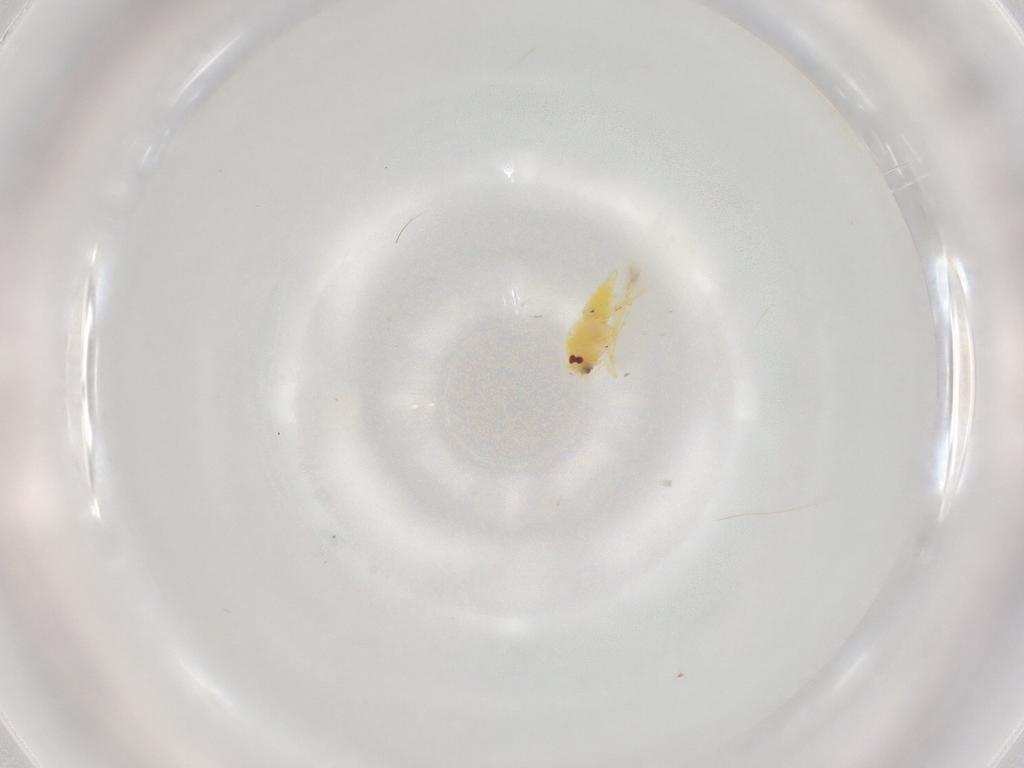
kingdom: Animalia
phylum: Arthropoda
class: Insecta
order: Hemiptera
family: Aleyrodidae
